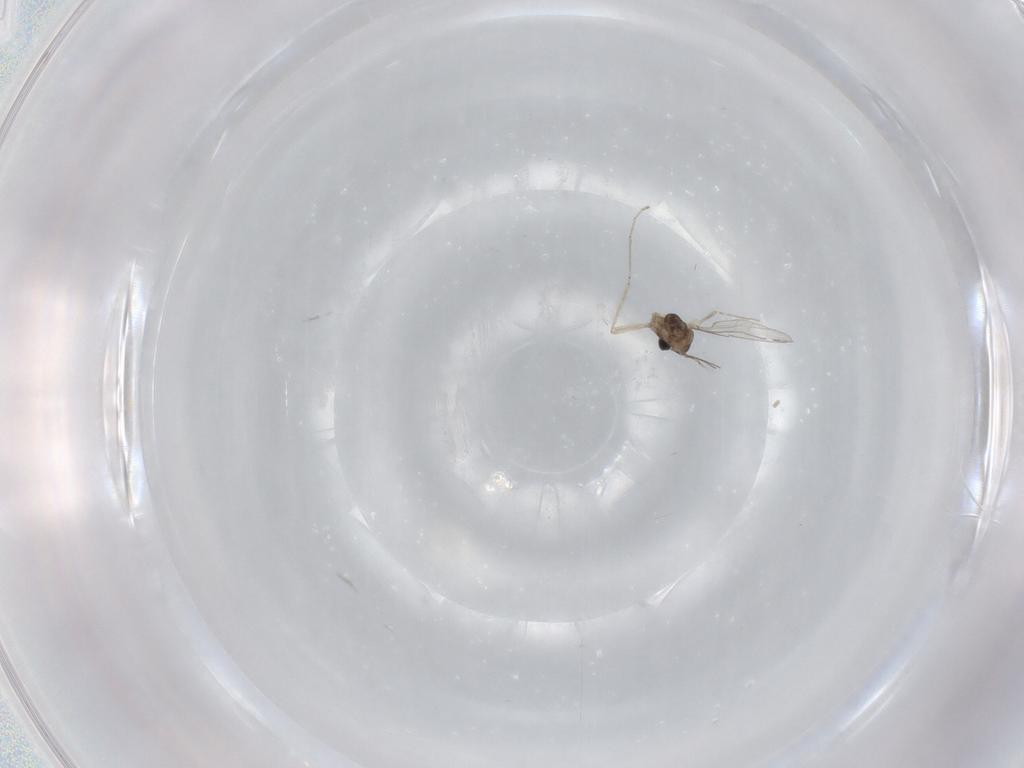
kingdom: Animalia
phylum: Arthropoda
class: Insecta
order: Diptera
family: Cecidomyiidae
